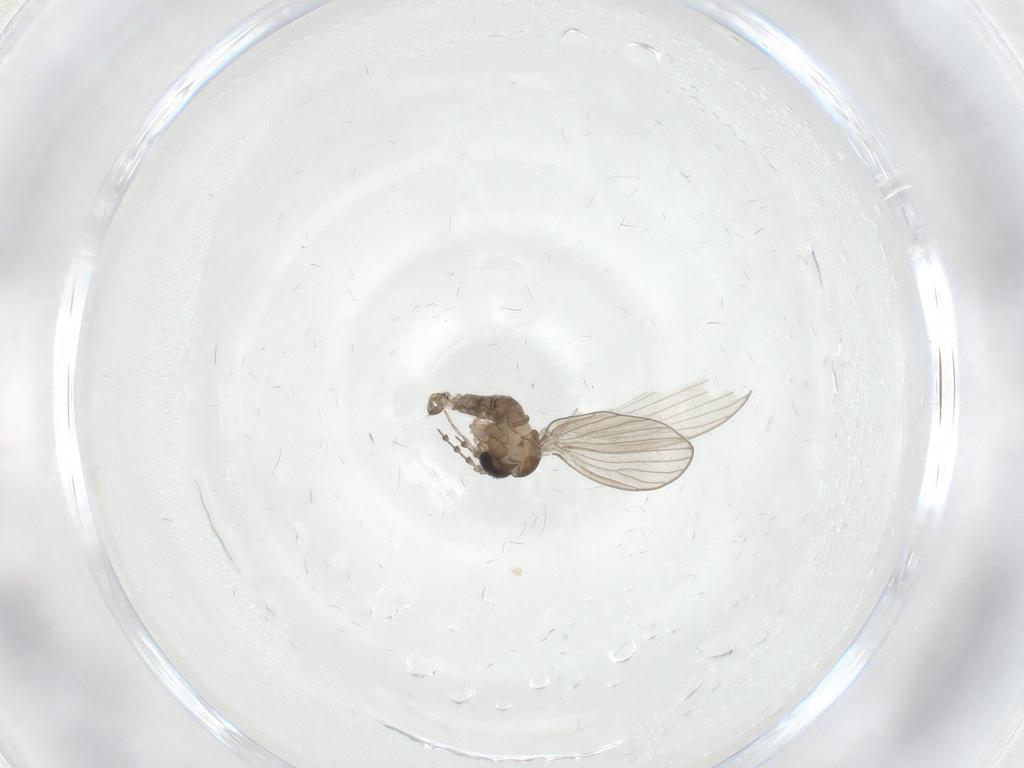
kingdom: Animalia
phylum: Arthropoda
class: Insecta
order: Diptera
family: Psychodidae
